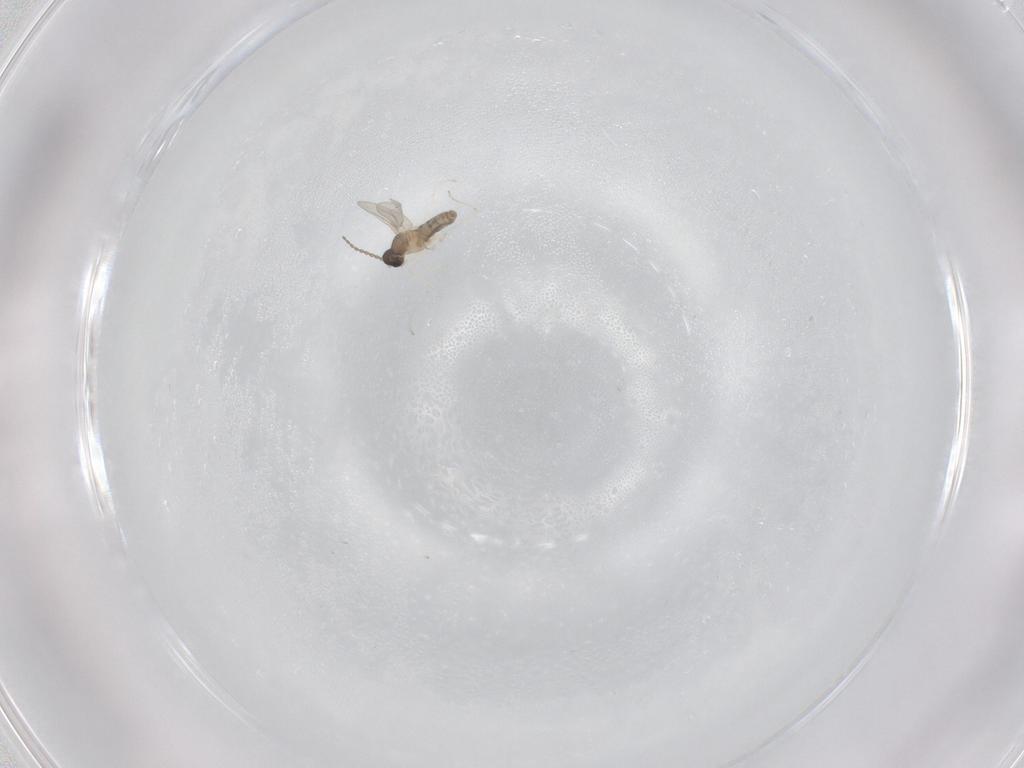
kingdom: Animalia
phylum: Arthropoda
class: Insecta
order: Diptera
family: Cecidomyiidae
